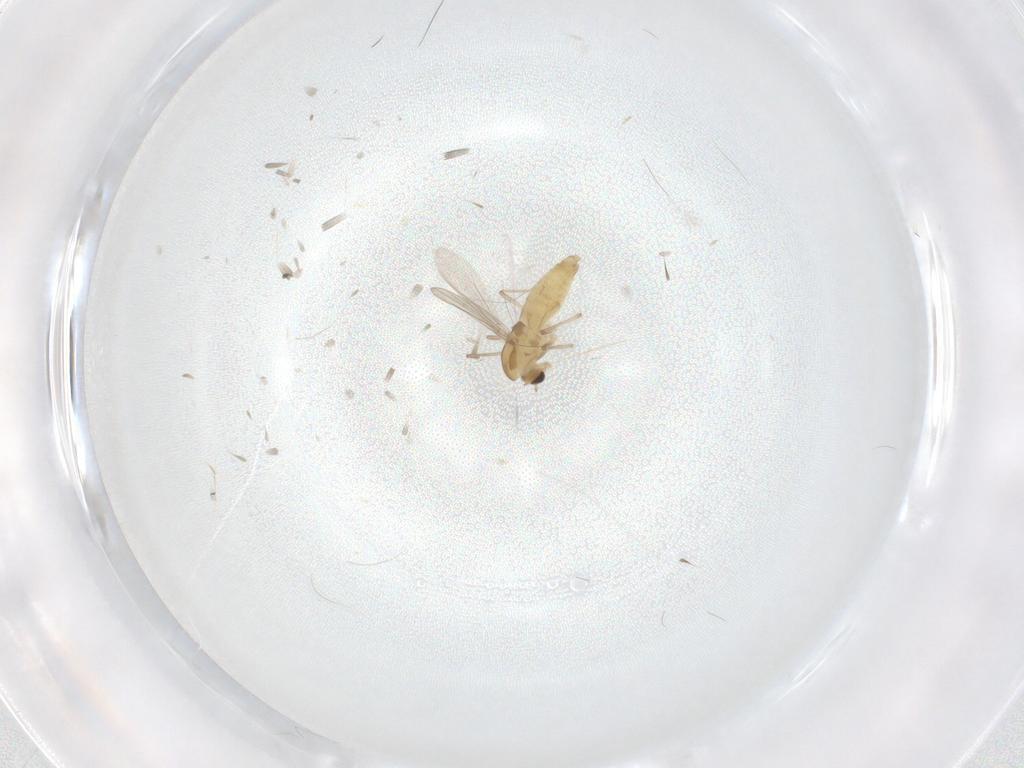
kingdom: Animalia
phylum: Arthropoda
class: Insecta
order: Diptera
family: Chironomidae
